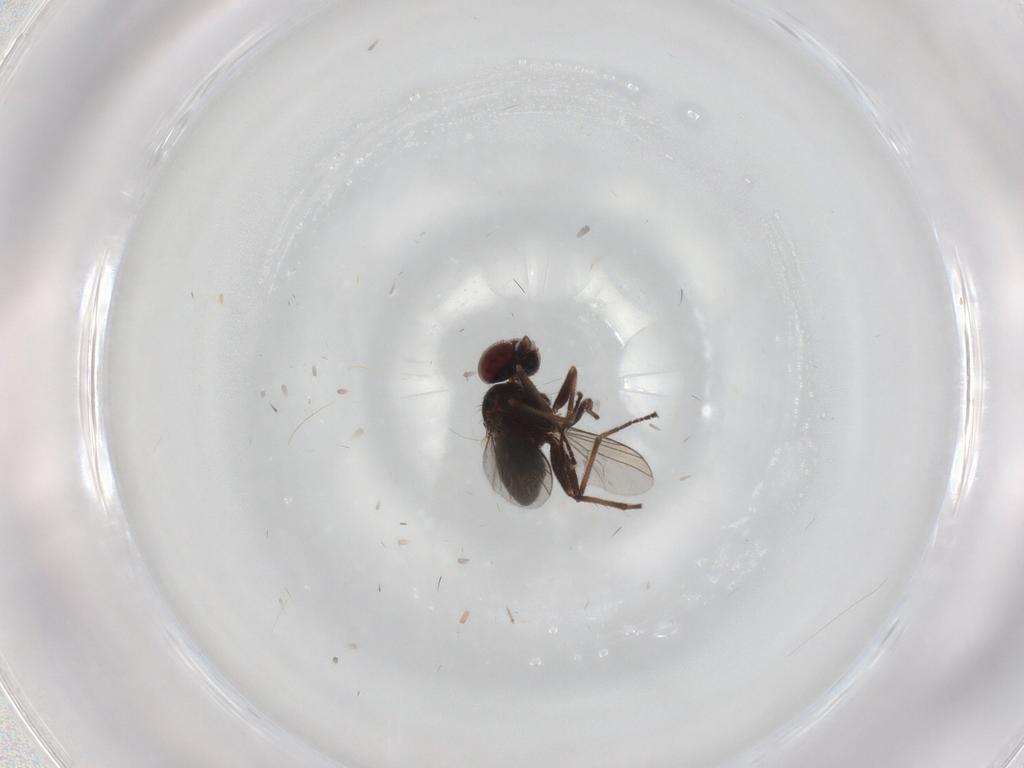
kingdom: Animalia
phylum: Arthropoda
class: Insecta
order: Diptera
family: Dolichopodidae
